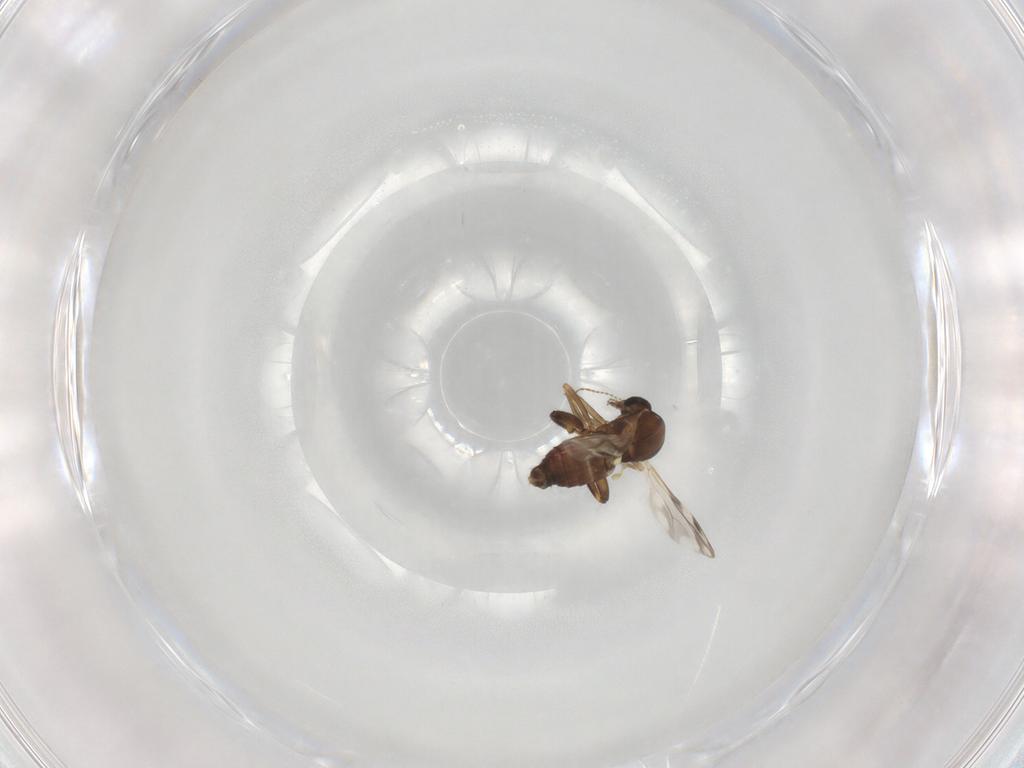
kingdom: Animalia
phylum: Arthropoda
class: Insecta
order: Diptera
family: Ceratopogonidae
